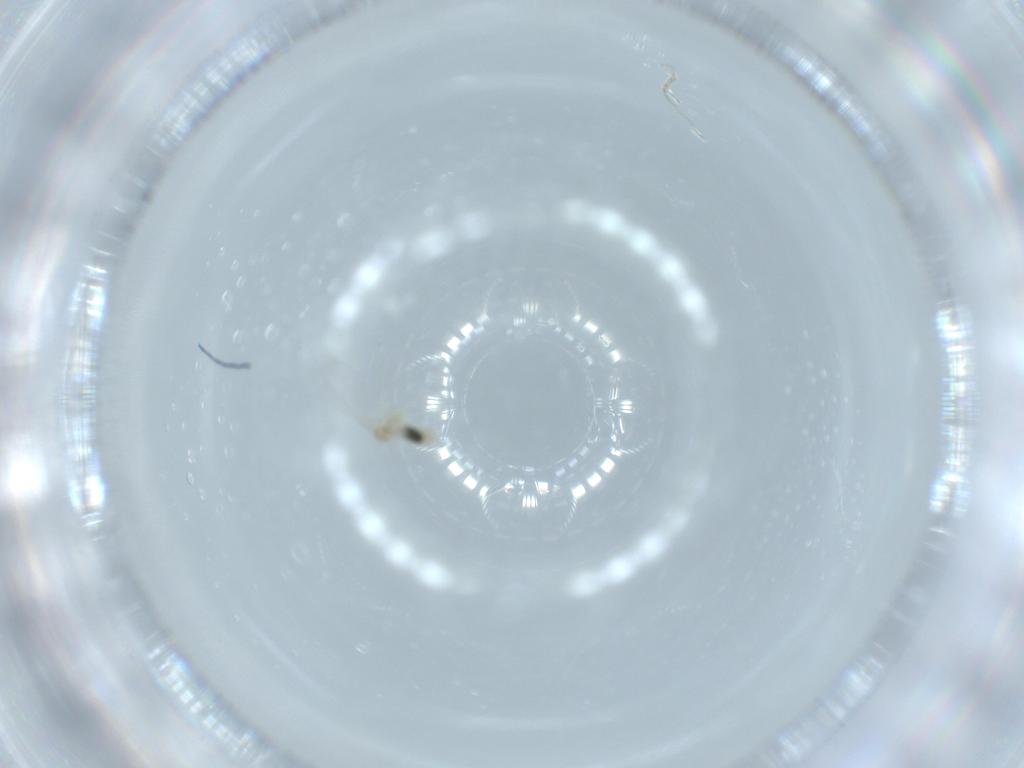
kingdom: Animalia
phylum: Arthropoda
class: Insecta
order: Diptera
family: Cecidomyiidae
